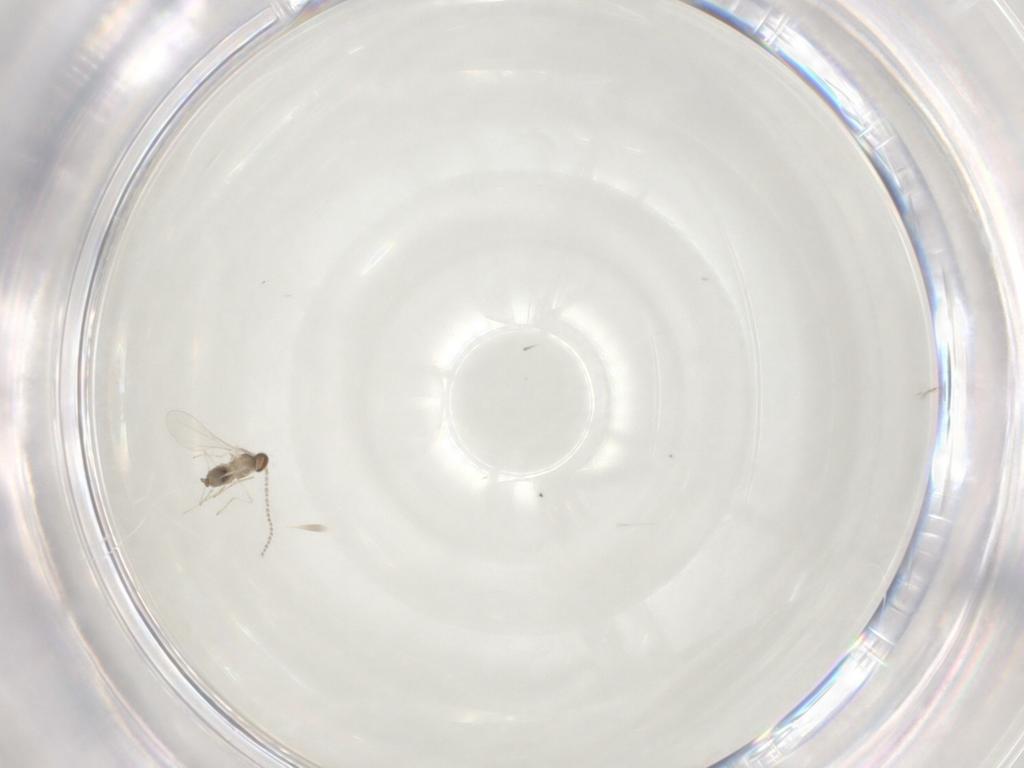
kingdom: Animalia
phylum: Arthropoda
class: Insecta
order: Diptera
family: Cecidomyiidae
